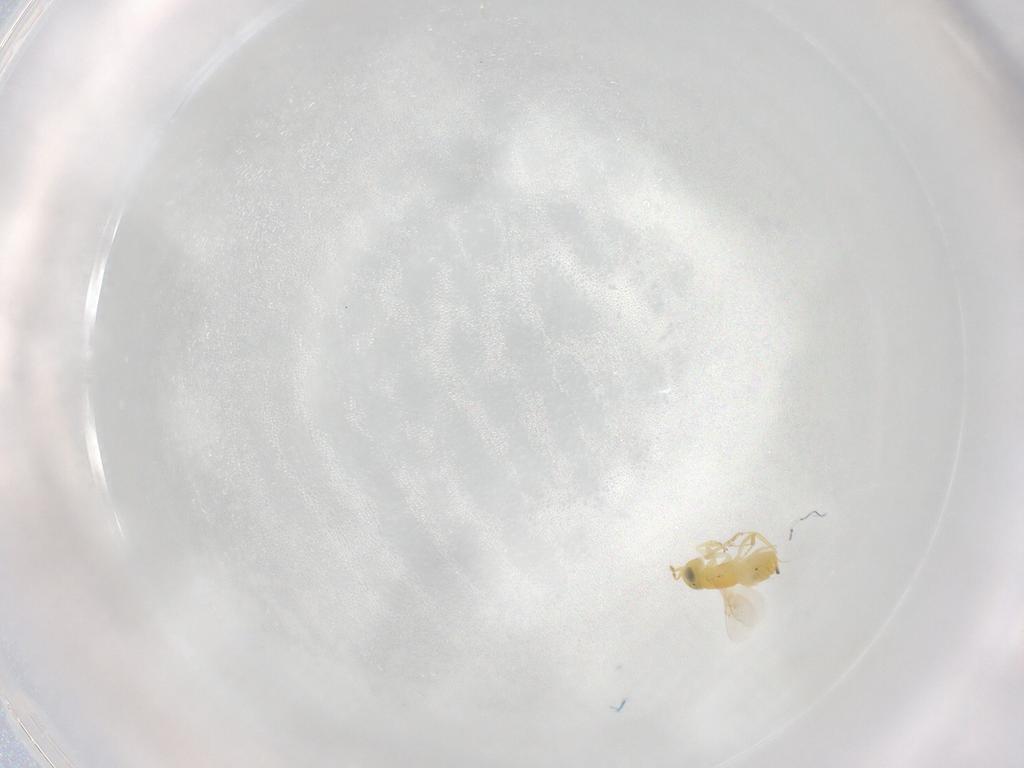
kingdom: Animalia
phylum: Arthropoda
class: Insecta
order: Hymenoptera
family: Mymaridae
